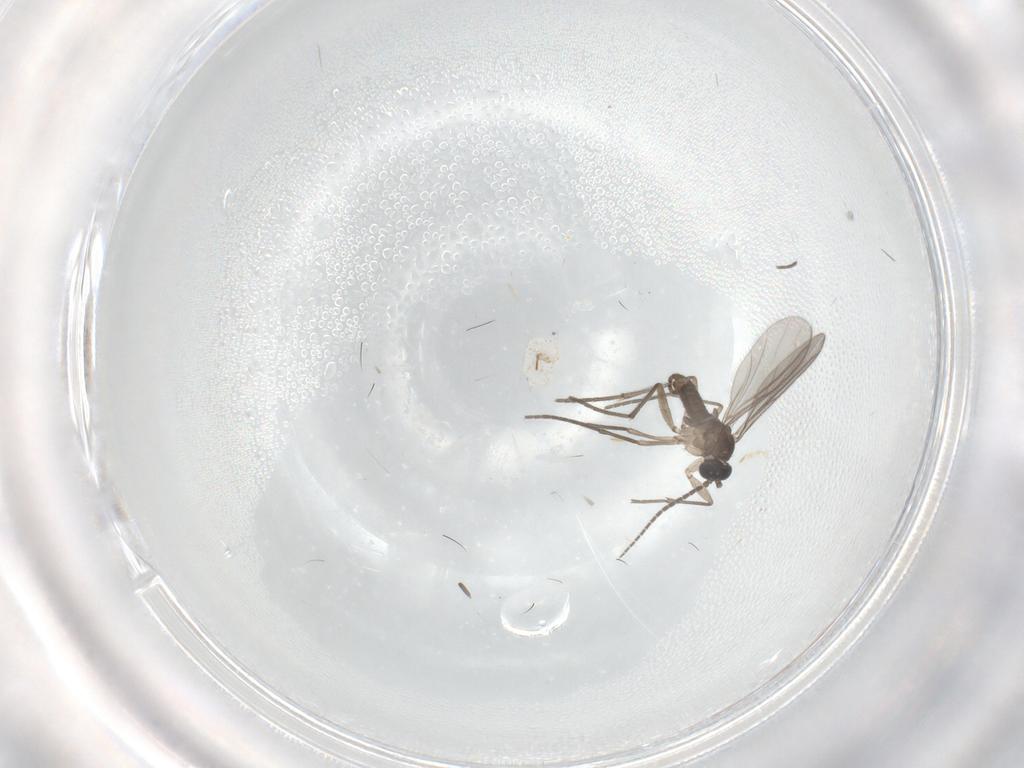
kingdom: Animalia
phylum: Arthropoda
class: Insecta
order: Diptera
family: Sciaridae
